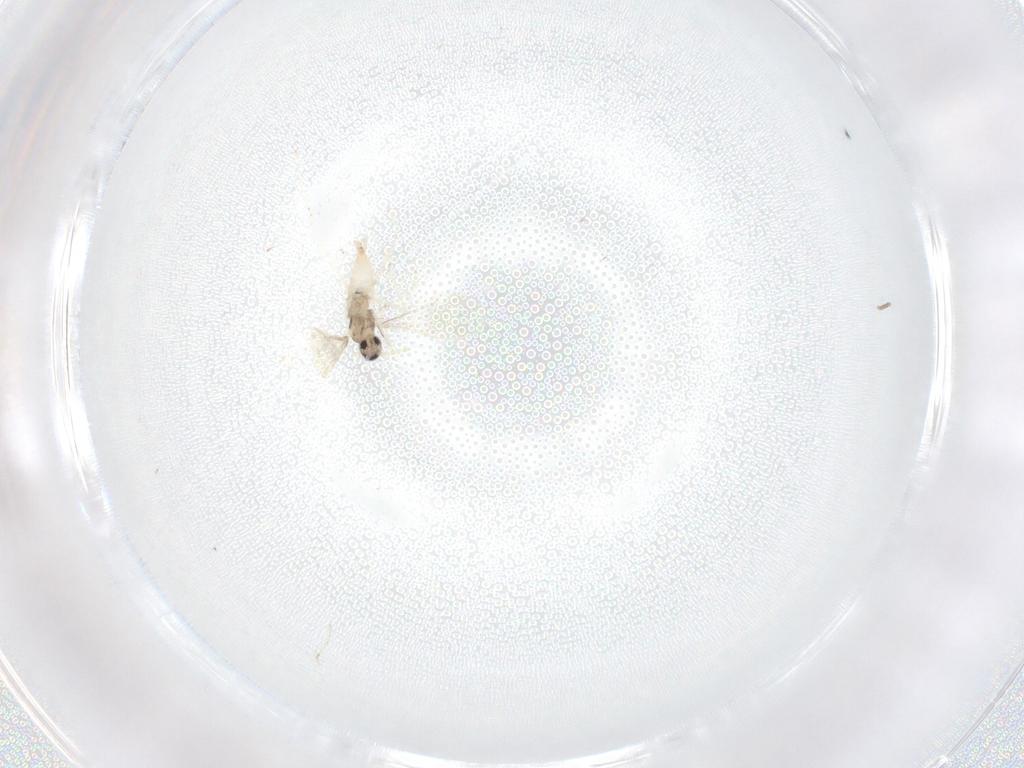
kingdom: Animalia
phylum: Arthropoda
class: Insecta
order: Diptera
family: Cecidomyiidae
